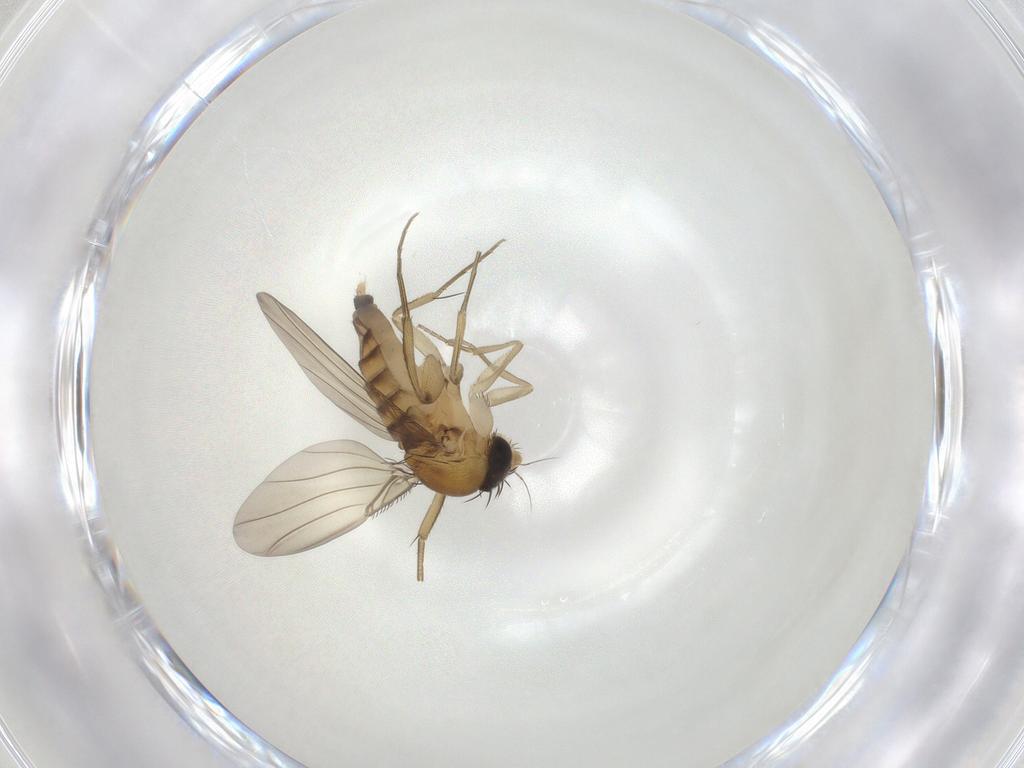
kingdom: Animalia
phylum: Arthropoda
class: Insecta
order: Diptera
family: Phoridae
